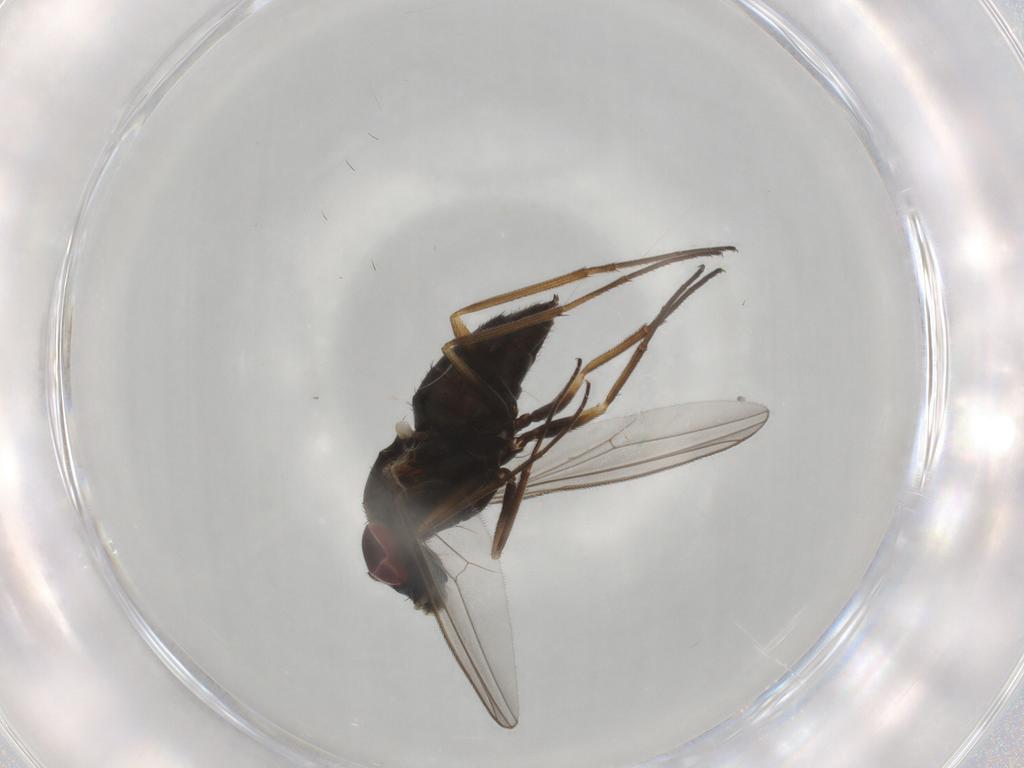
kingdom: Animalia
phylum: Arthropoda
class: Insecta
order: Diptera
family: Dolichopodidae
